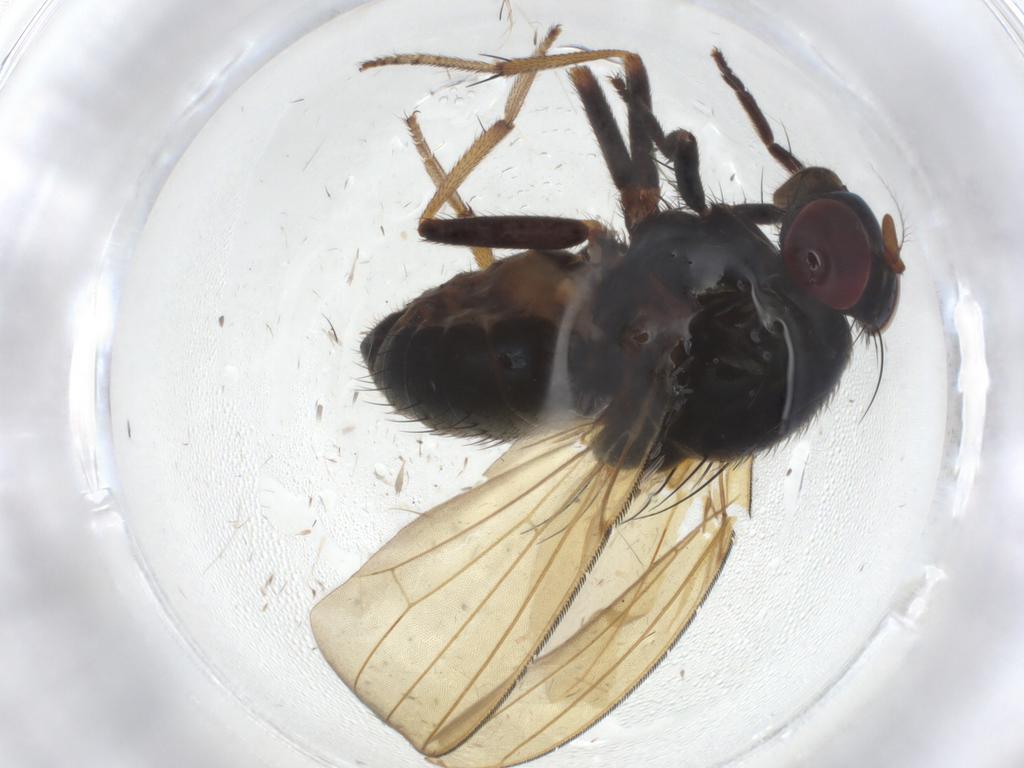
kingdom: Animalia
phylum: Arthropoda
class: Insecta
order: Diptera
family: Lauxaniidae
